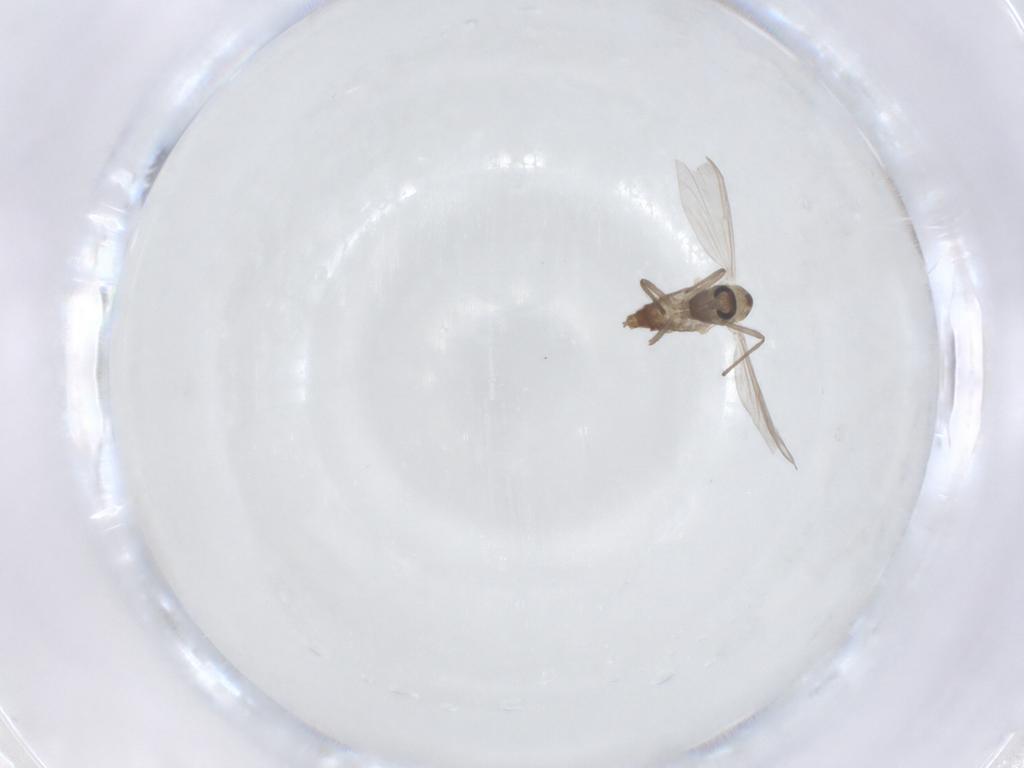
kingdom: Animalia
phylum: Arthropoda
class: Insecta
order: Diptera
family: Chironomidae
